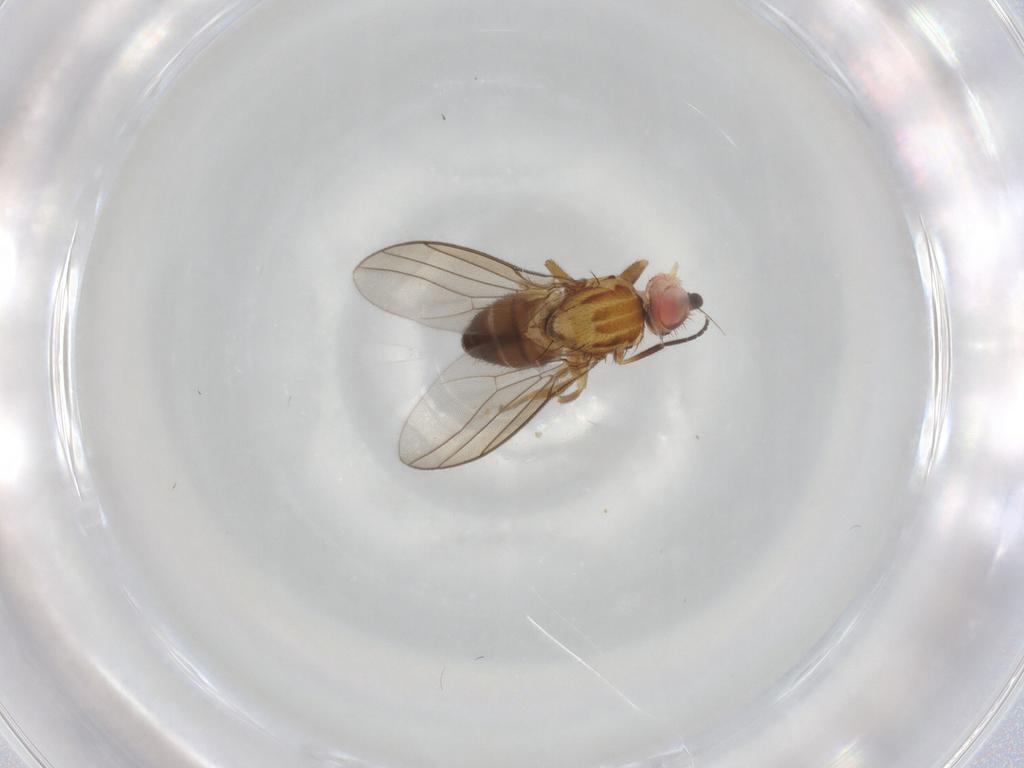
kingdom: Animalia
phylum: Arthropoda
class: Insecta
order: Diptera
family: Chloropidae
